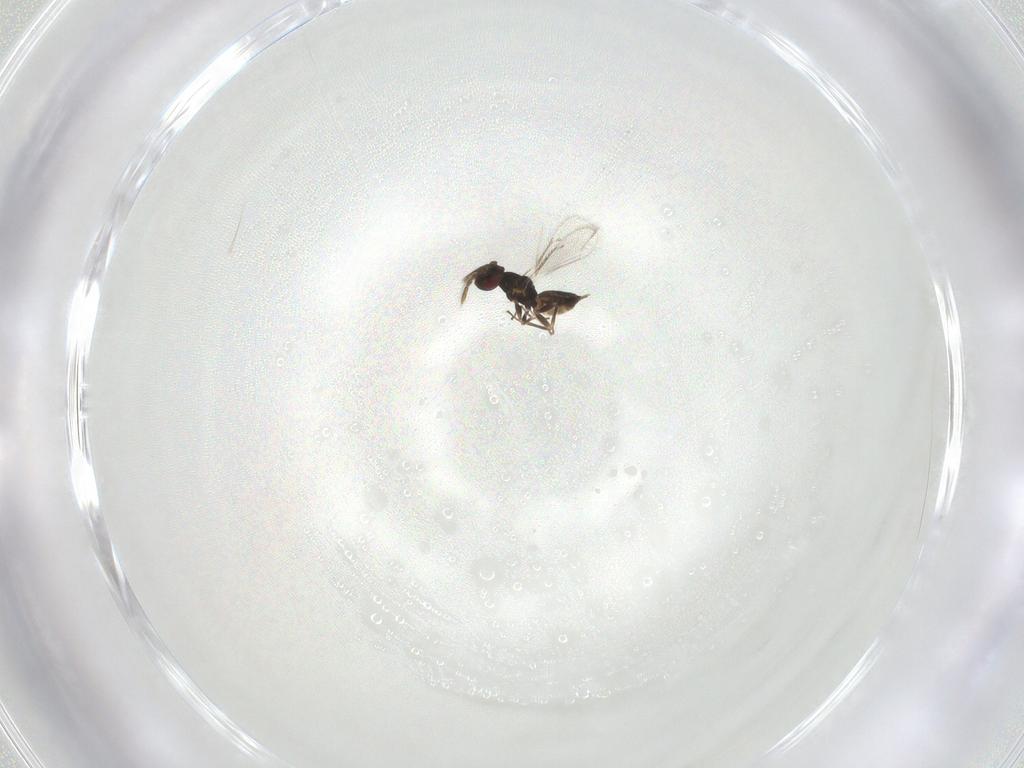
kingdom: Animalia
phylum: Arthropoda
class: Insecta
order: Hymenoptera
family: Eulophidae
